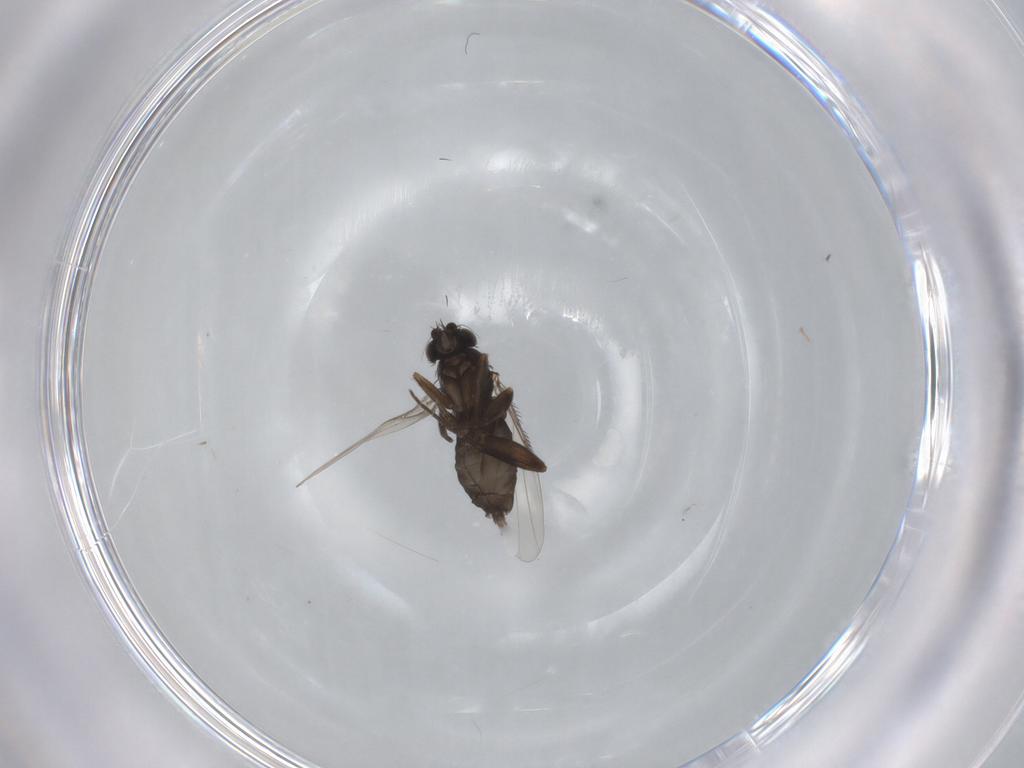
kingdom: Animalia
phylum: Arthropoda
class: Insecta
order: Diptera
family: Phoridae
